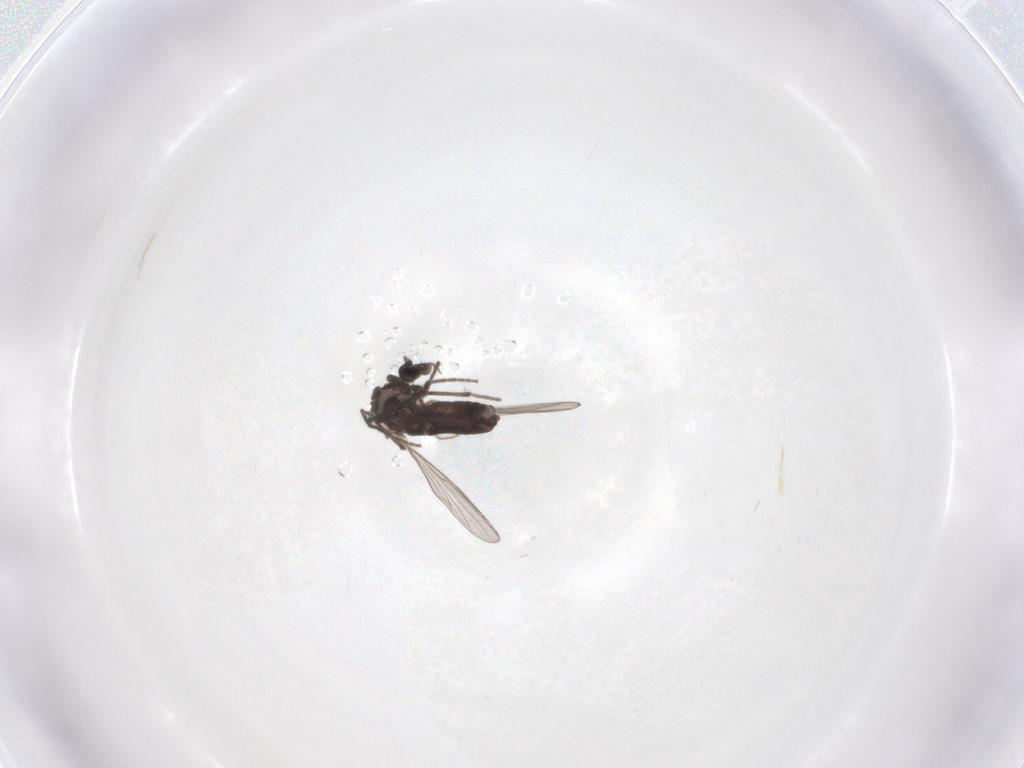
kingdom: Animalia
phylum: Arthropoda
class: Insecta
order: Diptera
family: Chironomidae
